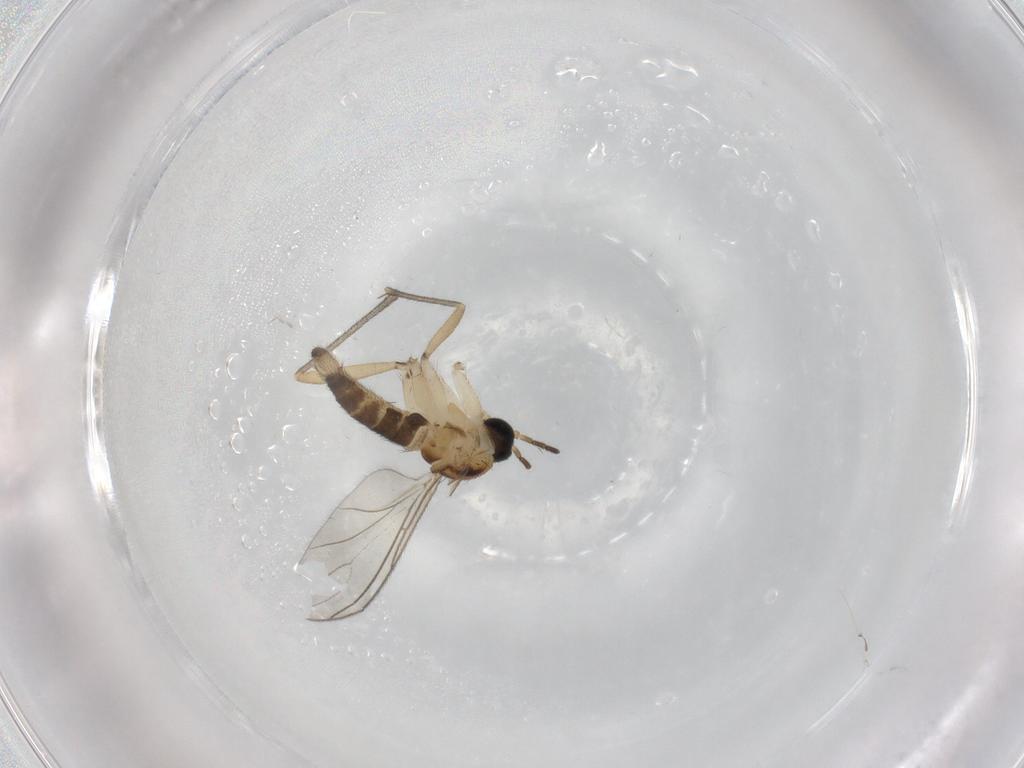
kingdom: Animalia
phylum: Arthropoda
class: Insecta
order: Diptera
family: Sciaridae
